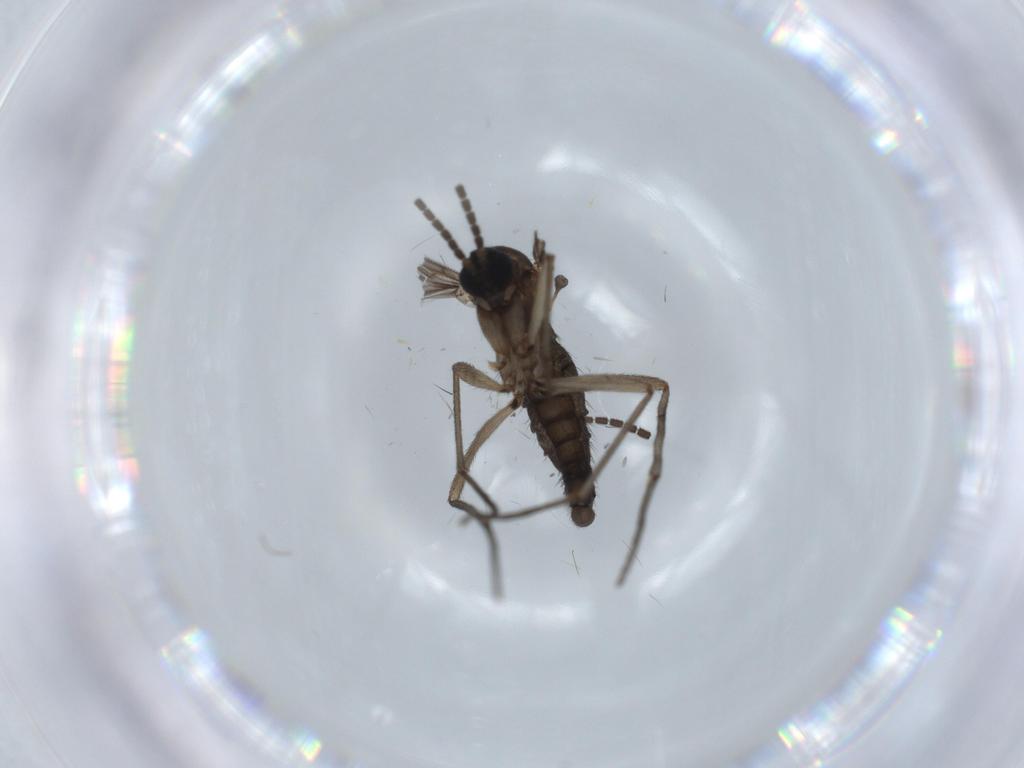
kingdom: Animalia
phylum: Arthropoda
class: Insecta
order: Diptera
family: Sciaridae
